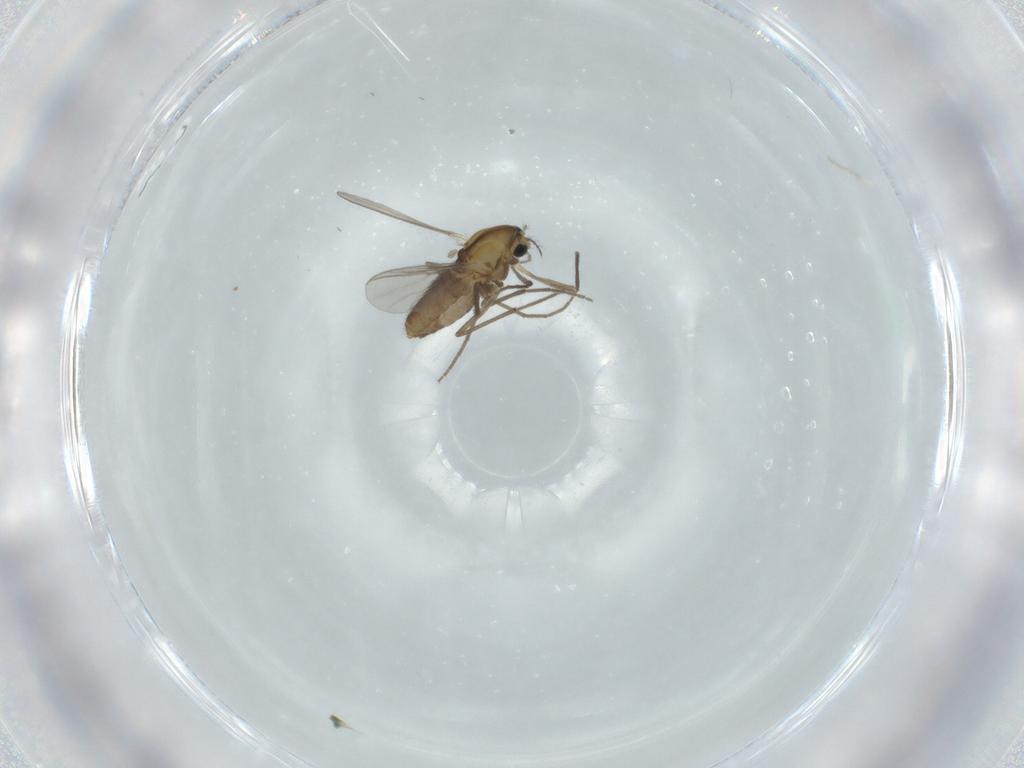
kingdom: Animalia
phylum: Arthropoda
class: Insecta
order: Diptera
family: Chironomidae
